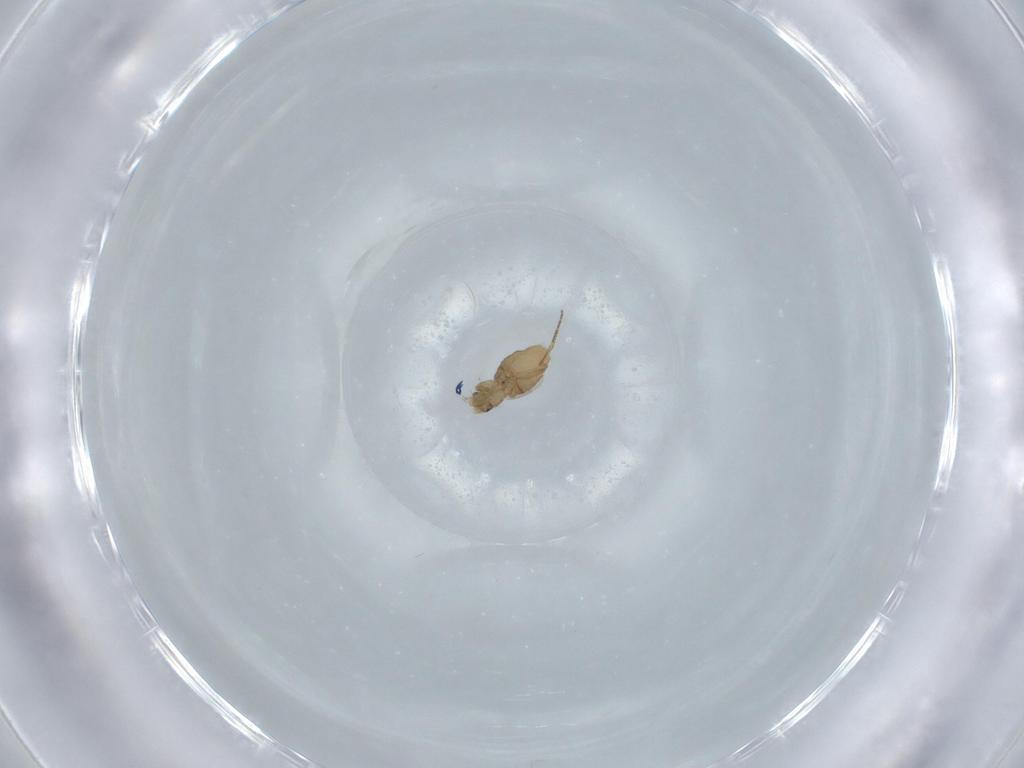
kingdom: Animalia
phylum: Arthropoda
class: Insecta
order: Diptera
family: Phoridae
